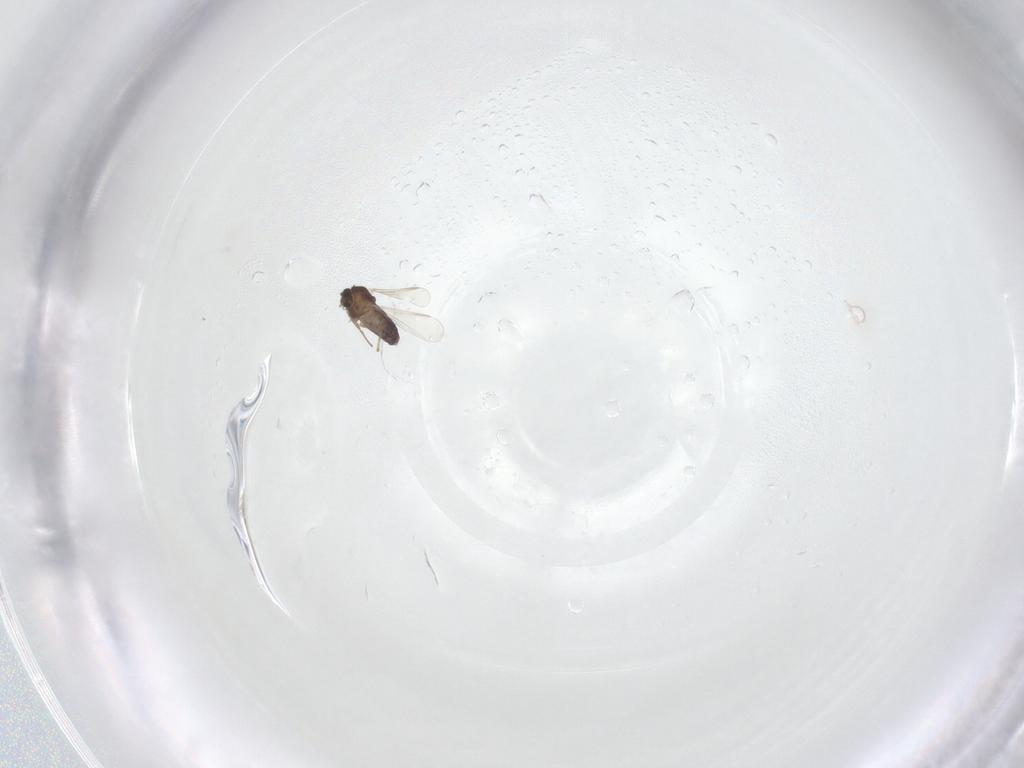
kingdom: Animalia
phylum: Arthropoda
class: Insecta
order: Diptera
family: Chironomidae
